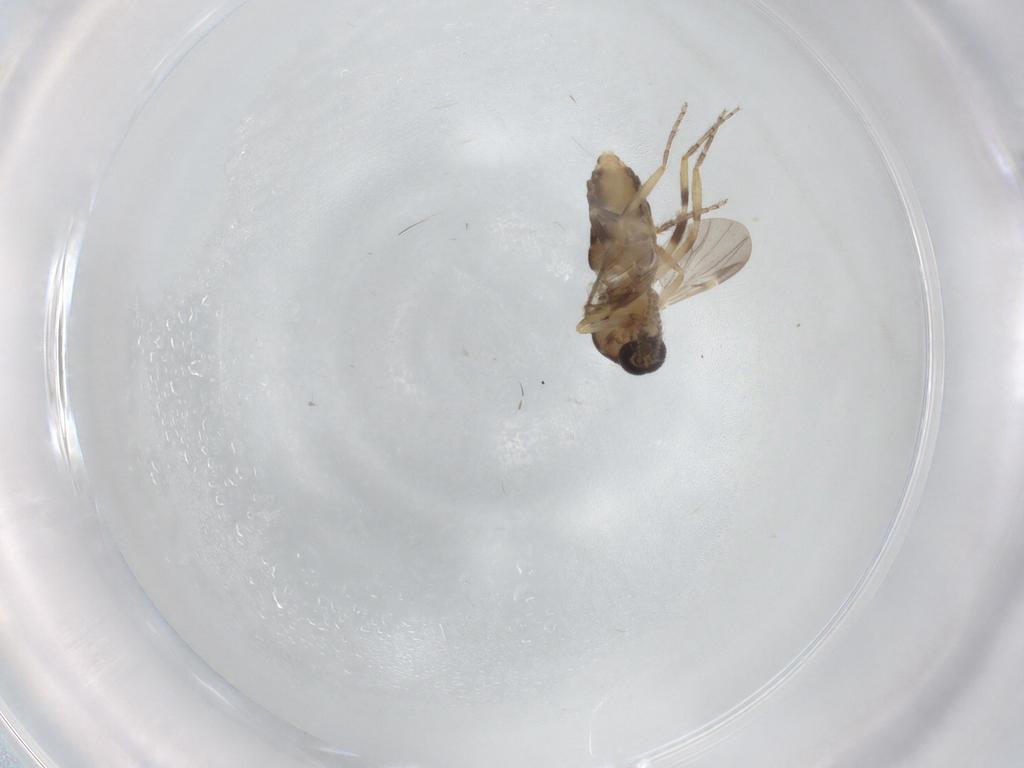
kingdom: Animalia
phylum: Arthropoda
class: Insecta
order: Diptera
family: Ceratopogonidae
